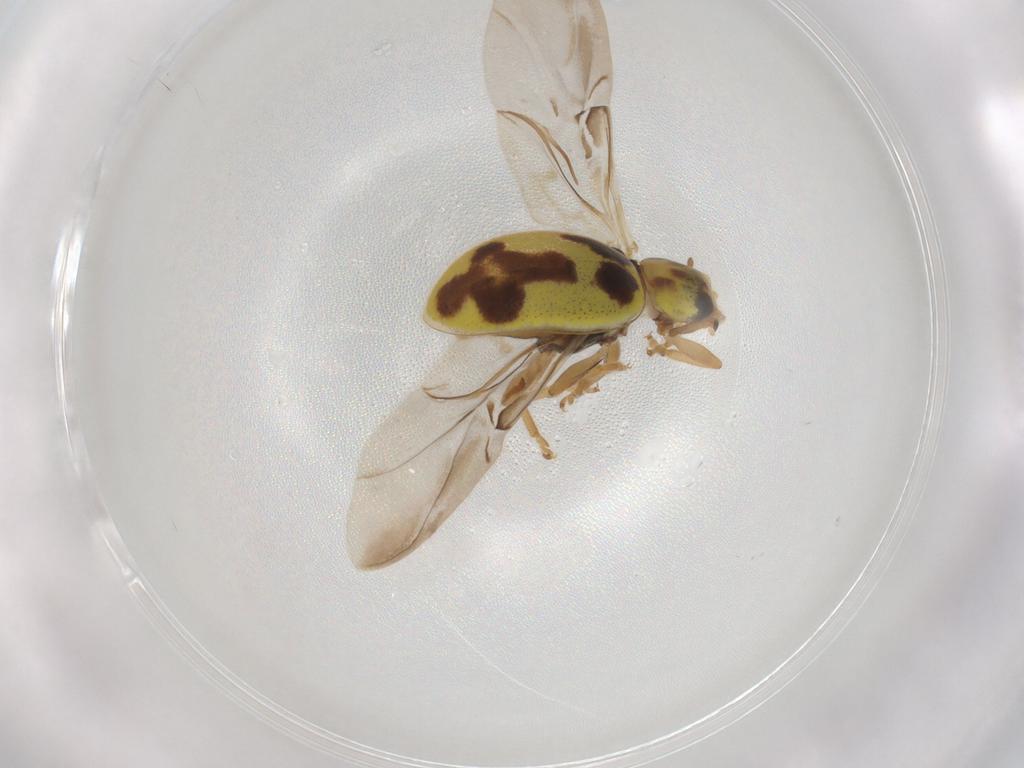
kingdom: Animalia
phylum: Arthropoda
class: Insecta
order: Coleoptera
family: Coccinellidae
